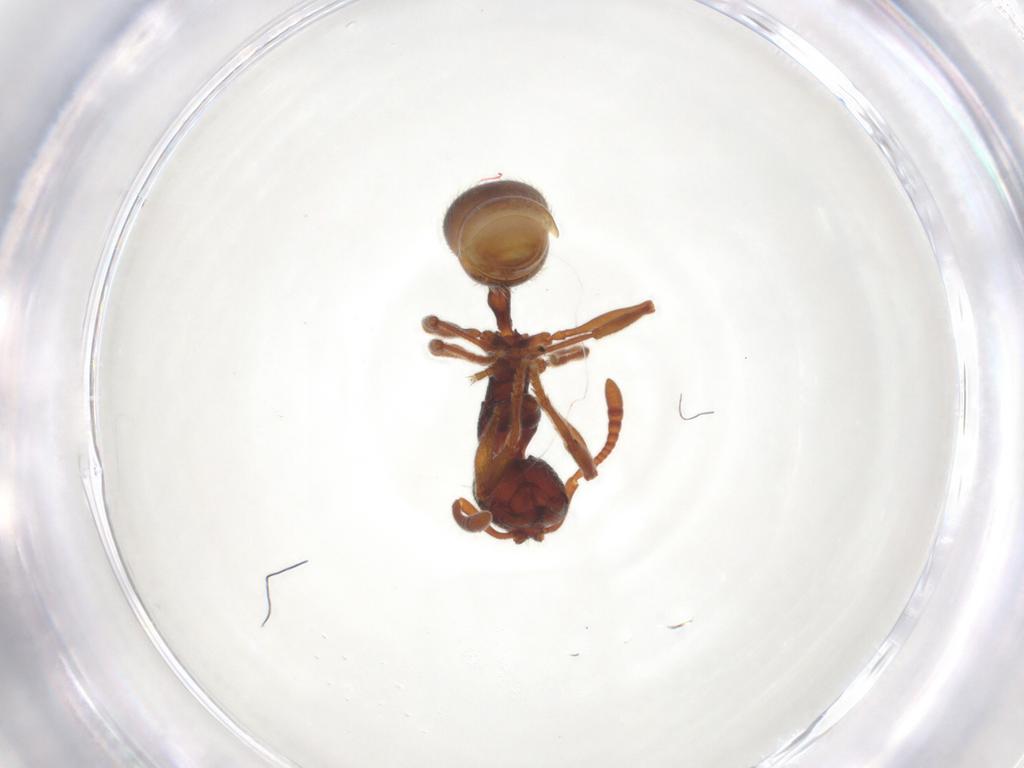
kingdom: Animalia
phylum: Arthropoda
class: Insecta
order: Hymenoptera
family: Formicidae
